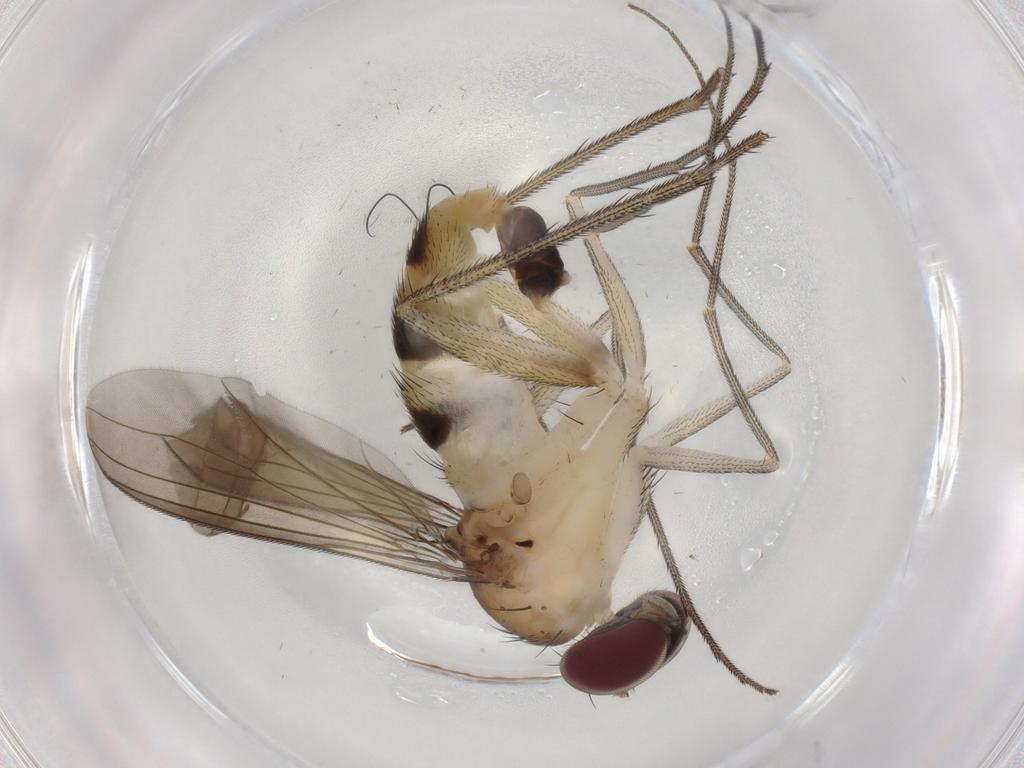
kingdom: Animalia
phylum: Arthropoda
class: Insecta
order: Diptera
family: Dolichopodidae
